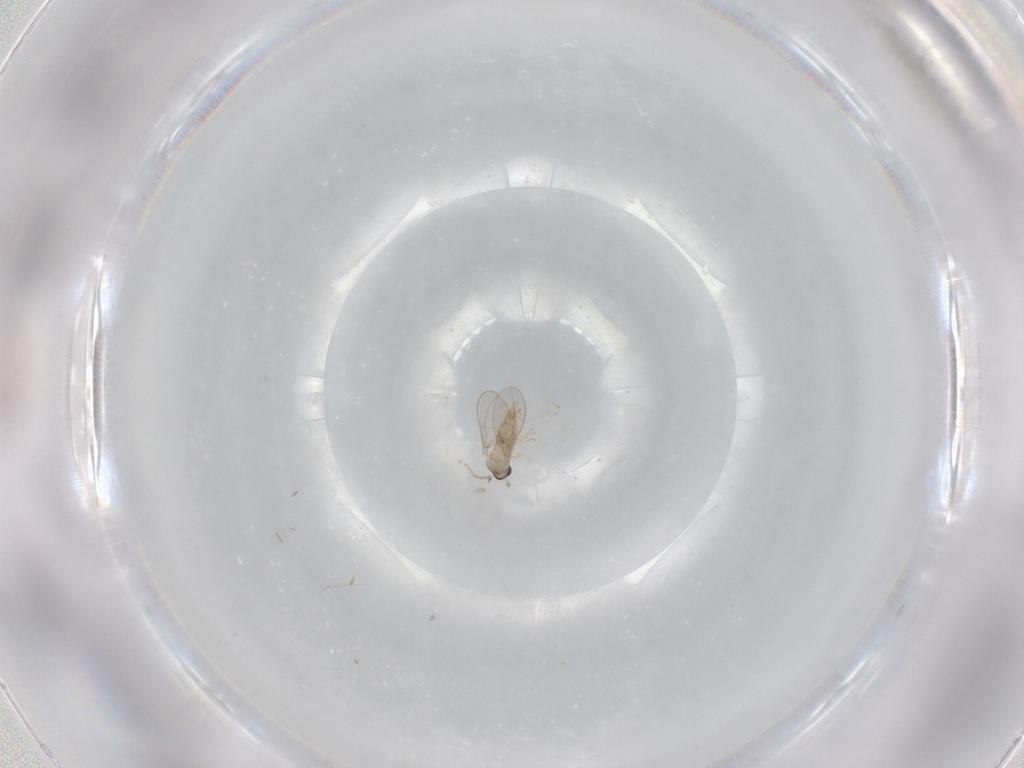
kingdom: Animalia
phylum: Arthropoda
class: Insecta
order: Diptera
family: Cecidomyiidae
